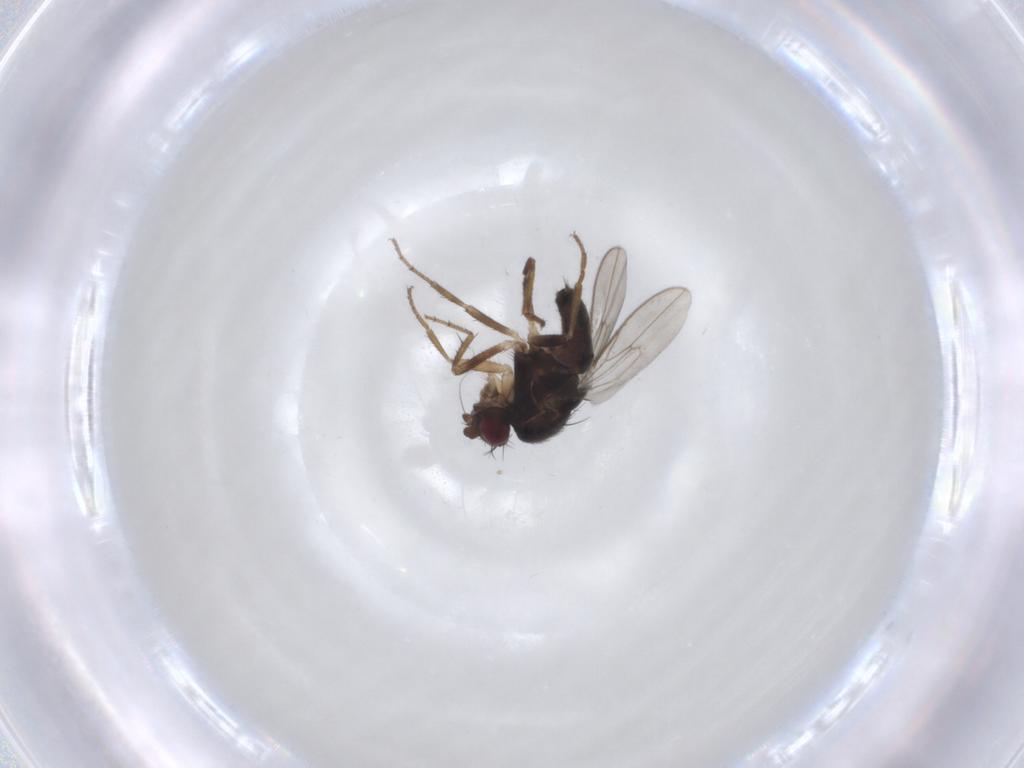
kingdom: Animalia
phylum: Arthropoda
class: Insecta
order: Diptera
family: Sphaeroceridae
